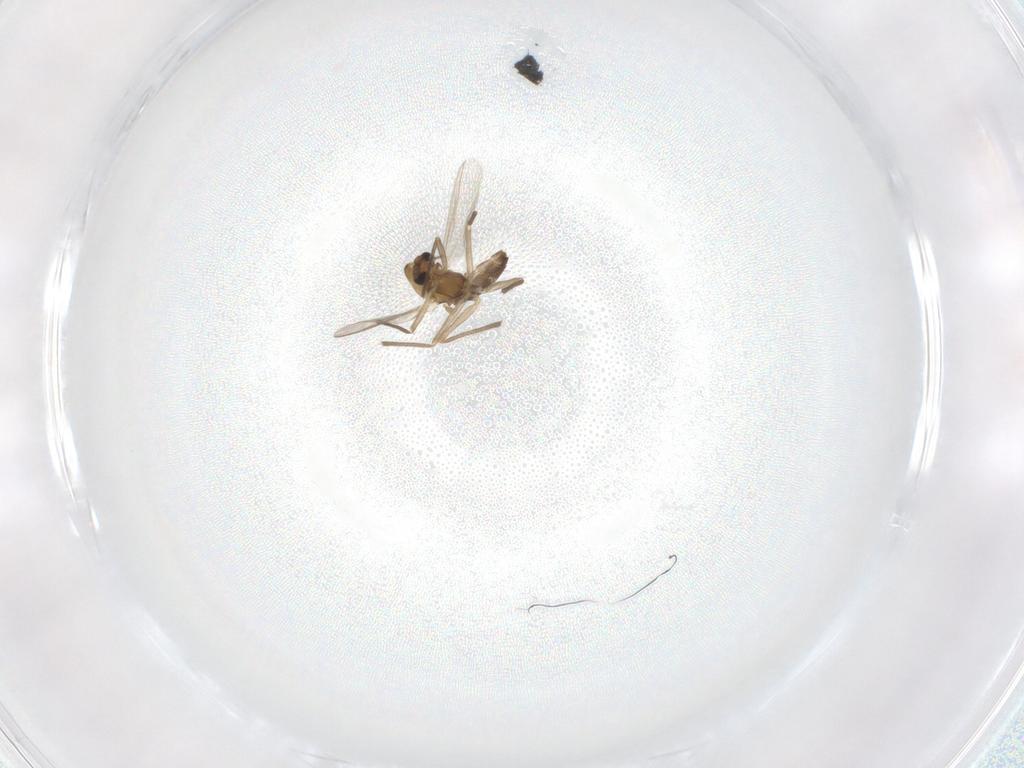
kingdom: Animalia
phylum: Arthropoda
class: Insecta
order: Diptera
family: Chironomidae
